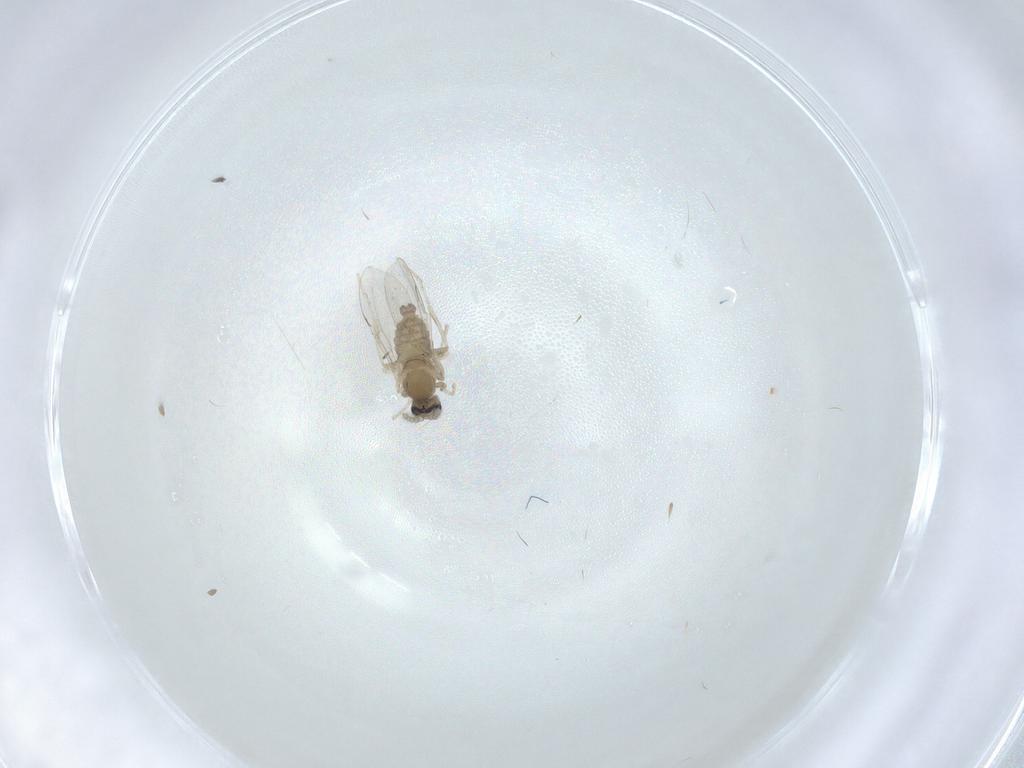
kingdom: Animalia
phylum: Arthropoda
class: Insecta
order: Diptera
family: Cecidomyiidae
